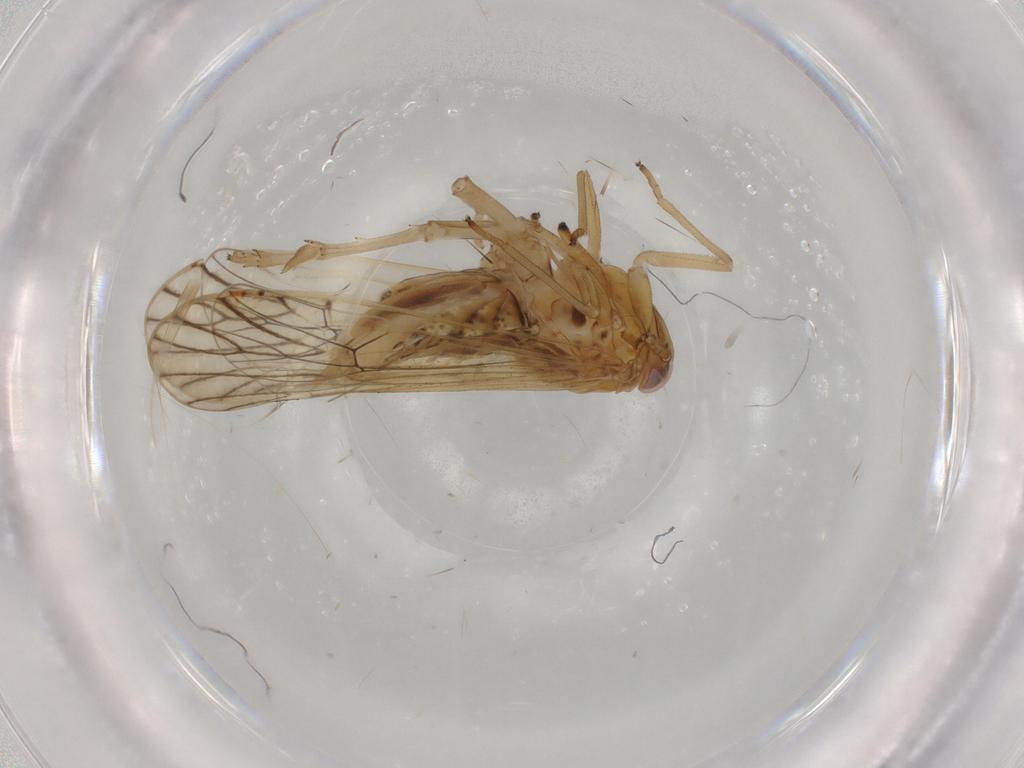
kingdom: Animalia
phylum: Arthropoda
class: Insecta
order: Hemiptera
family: Delphacidae
